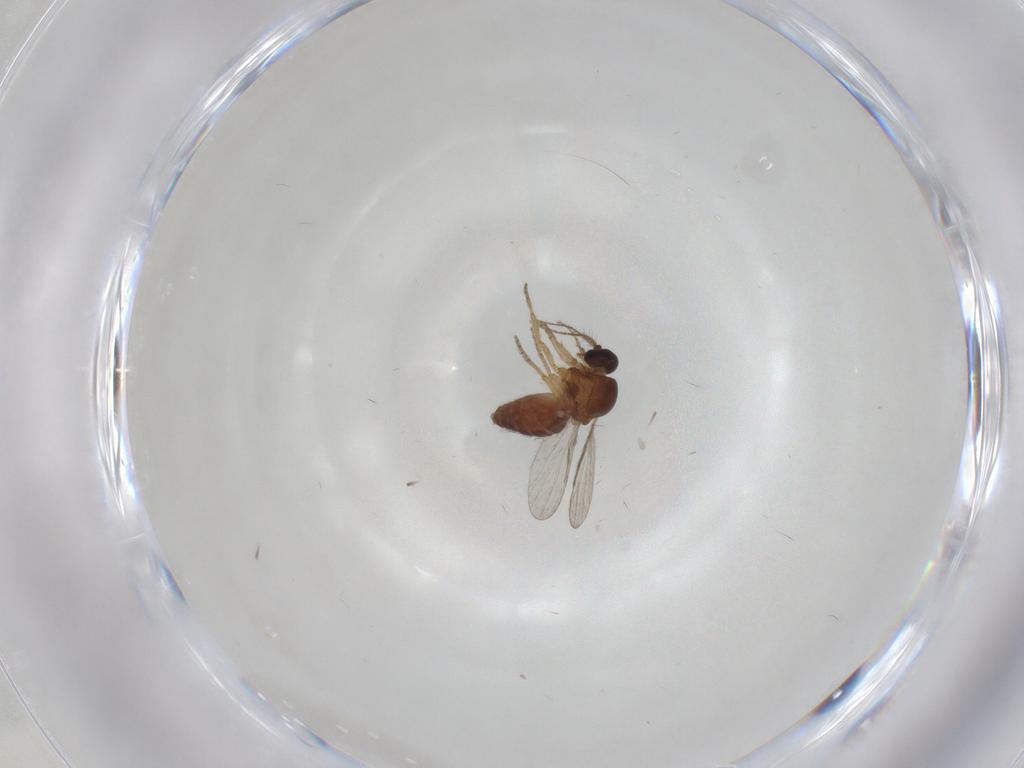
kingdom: Animalia
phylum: Arthropoda
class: Insecta
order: Diptera
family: Ceratopogonidae
